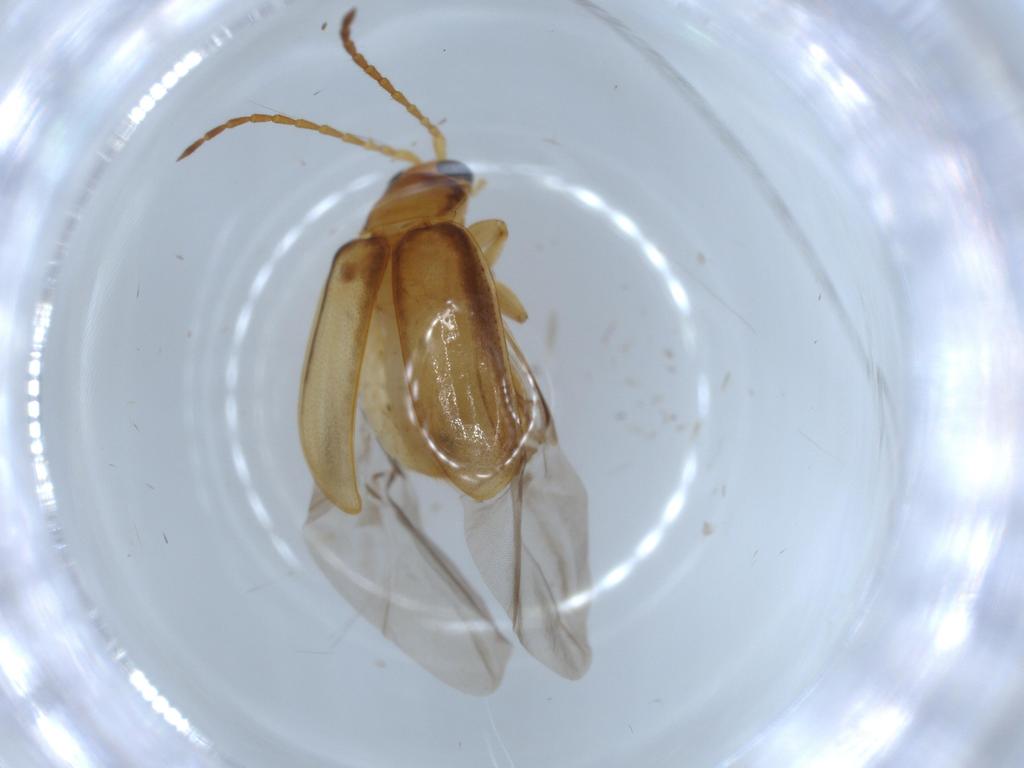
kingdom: Animalia
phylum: Arthropoda
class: Insecta
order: Coleoptera
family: Chrysomelidae
